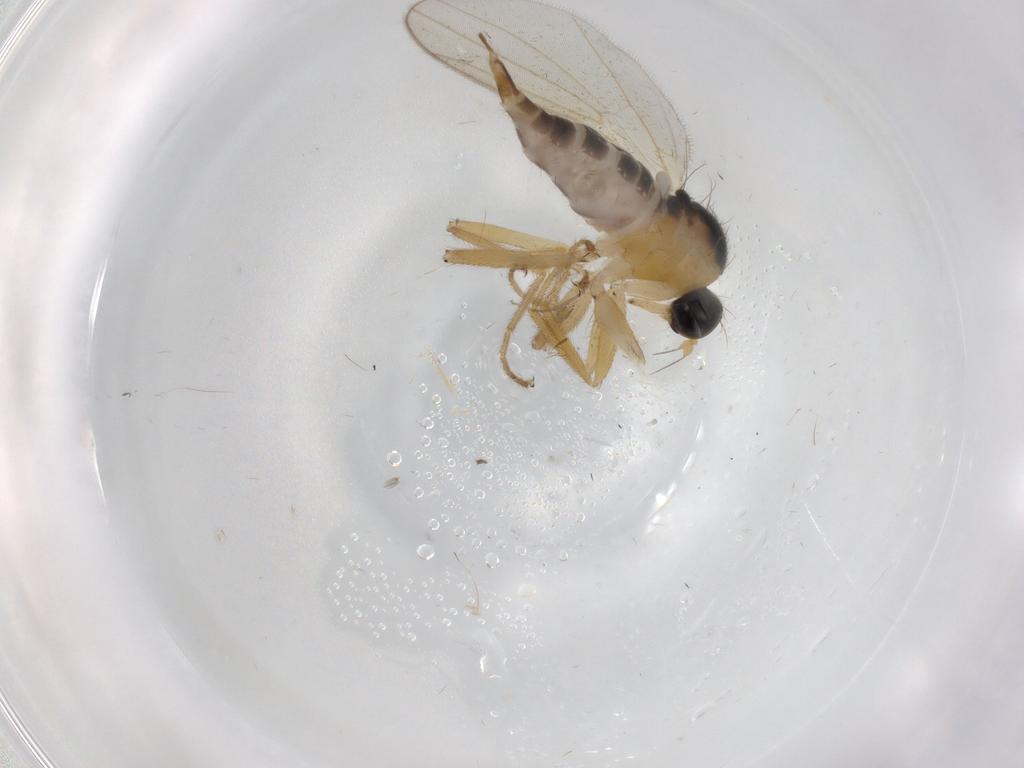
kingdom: Animalia
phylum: Arthropoda
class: Insecta
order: Diptera
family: Hybotidae
